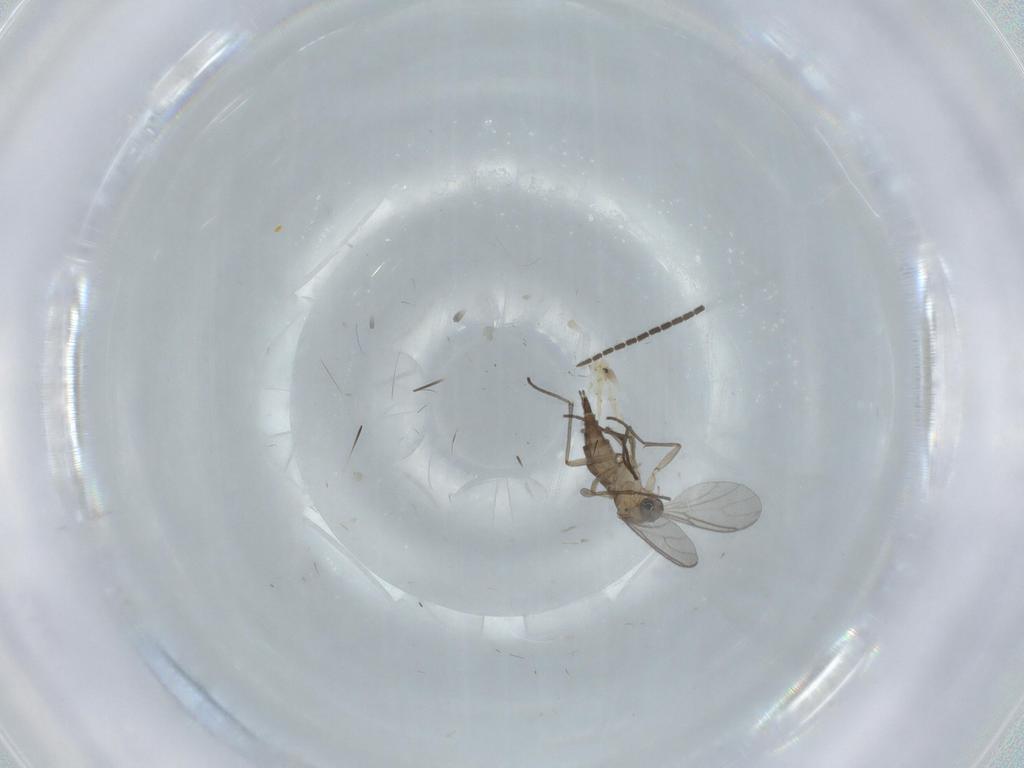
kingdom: Animalia
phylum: Arthropoda
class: Insecta
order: Diptera
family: Sciaridae
